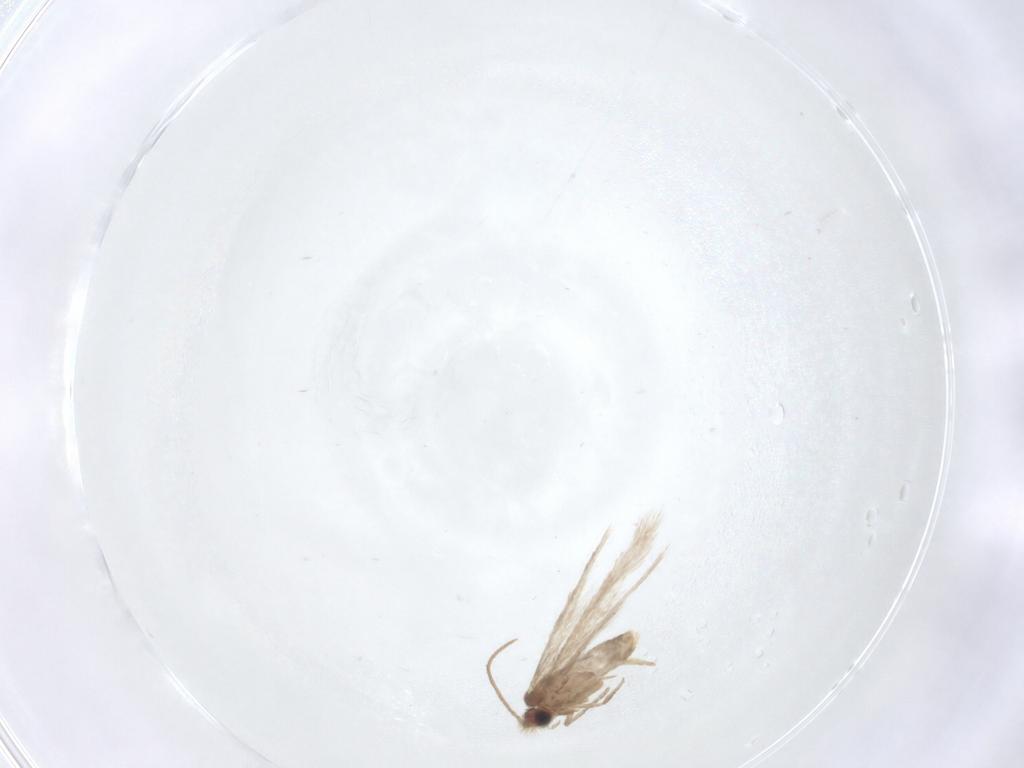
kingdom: Animalia
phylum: Arthropoda
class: Insecta
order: Lepidoptera
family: Nepticulidae
